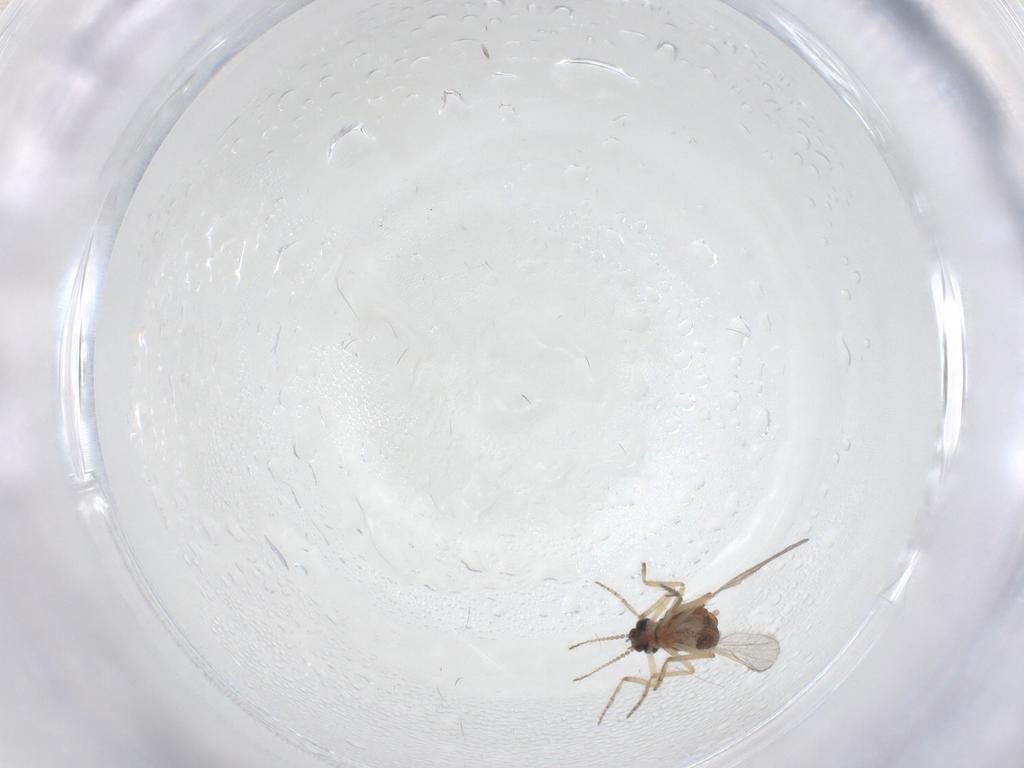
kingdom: Animalia
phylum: Arthropoda
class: Insecta
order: Diptera
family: Ceratopogonidae
